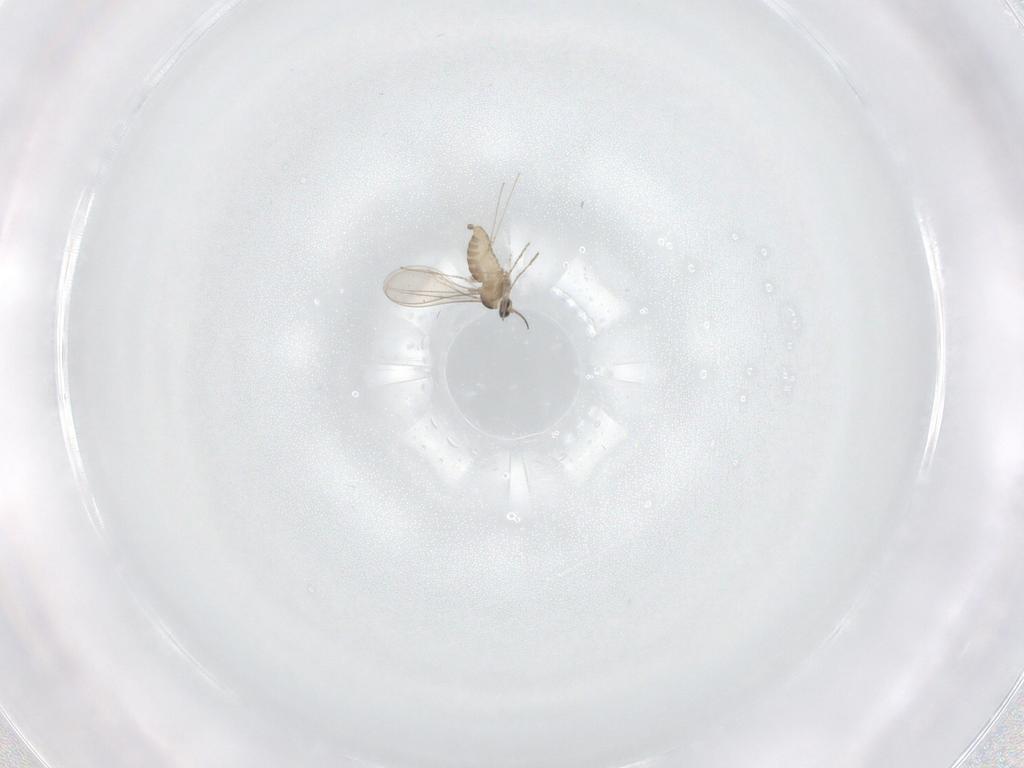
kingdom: Animalia
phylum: Arthropoda
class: Insecta
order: Diptera
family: Cecidomyiidae
